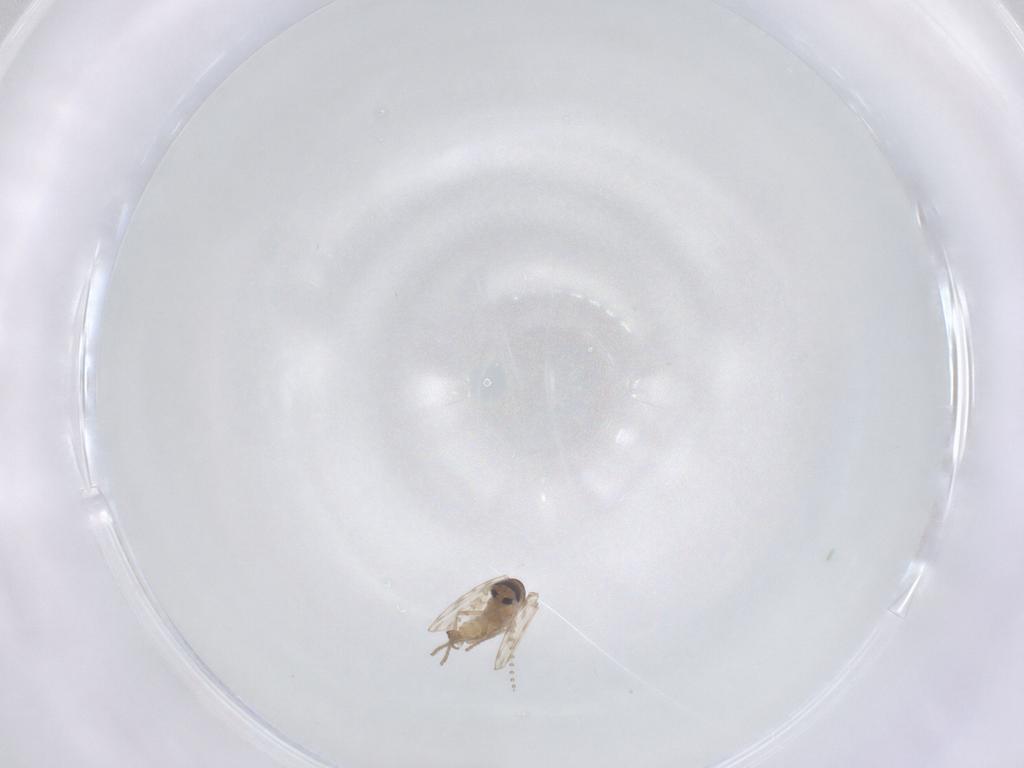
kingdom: Animalia
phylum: Arthropoda
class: Insecta
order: Diptera
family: Psychodidae
